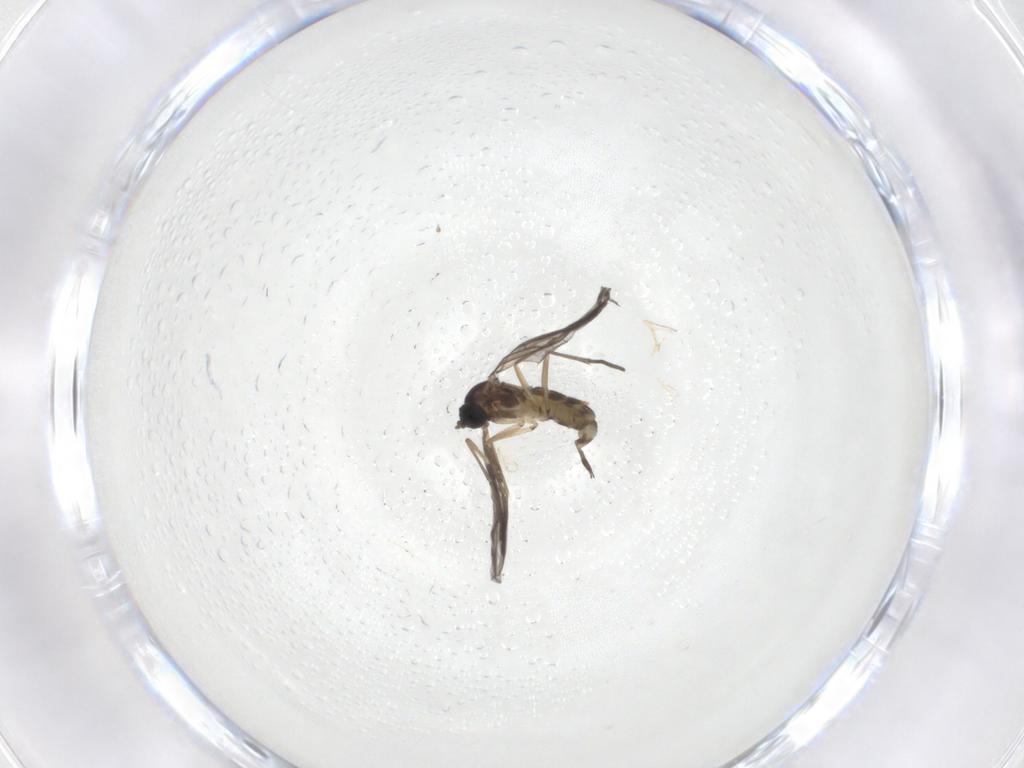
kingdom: Animalia
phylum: Arthropoda
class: Insecta
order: Diptera
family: Sciaridae
